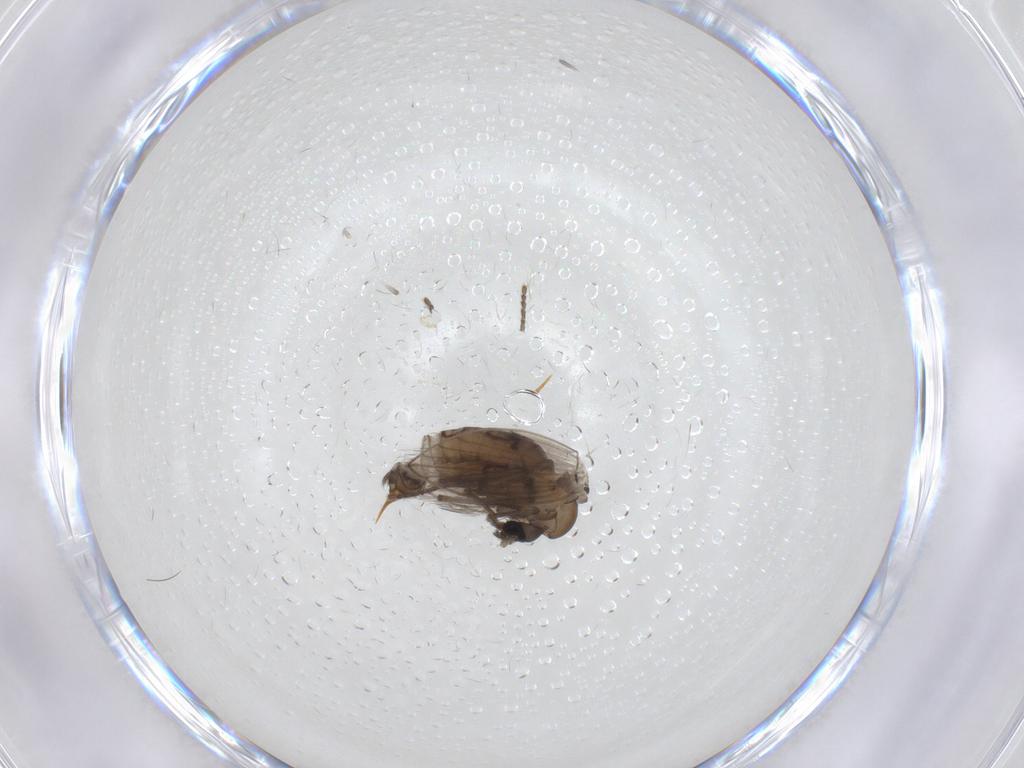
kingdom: Animalia
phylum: Arthropoda
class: Insecta
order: Diptera
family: Psychodidae
